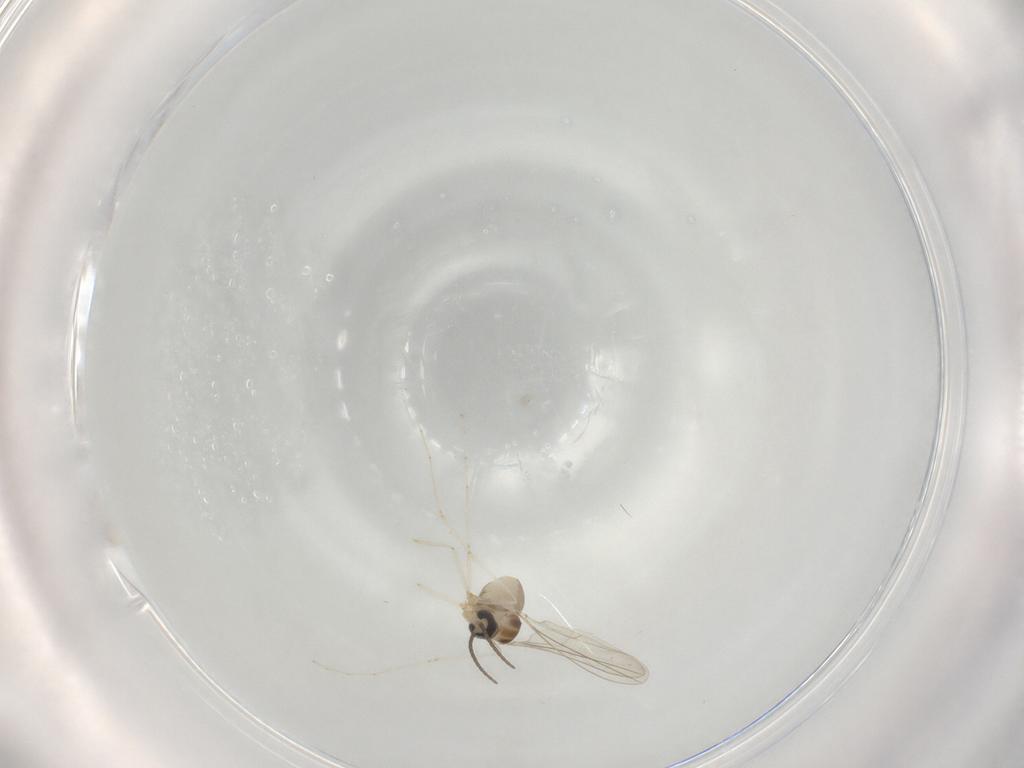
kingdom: Animalia
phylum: Arthropoda
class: Insecta
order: Diptera
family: Cecidomyiidae
